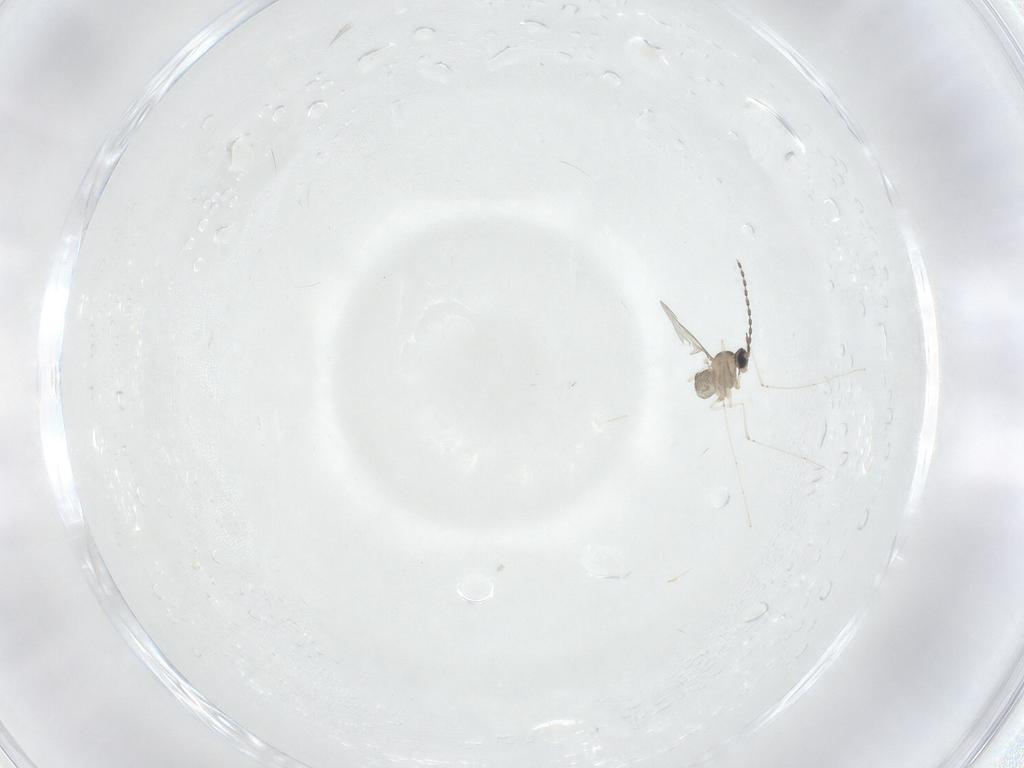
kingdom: Animalia
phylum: Arthropoda
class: Insecta
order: Diptera
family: Cecidomyiidae
